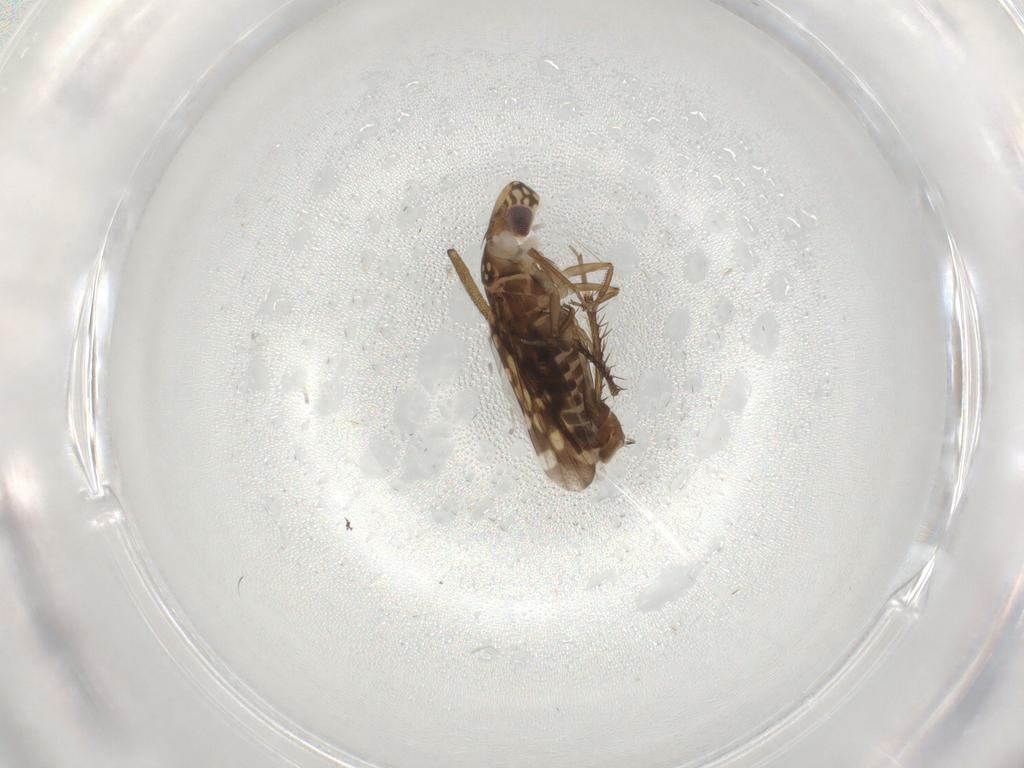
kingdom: Animalia
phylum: Arthropoda
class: Insecta
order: Hemiptera
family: Cicadellidae
